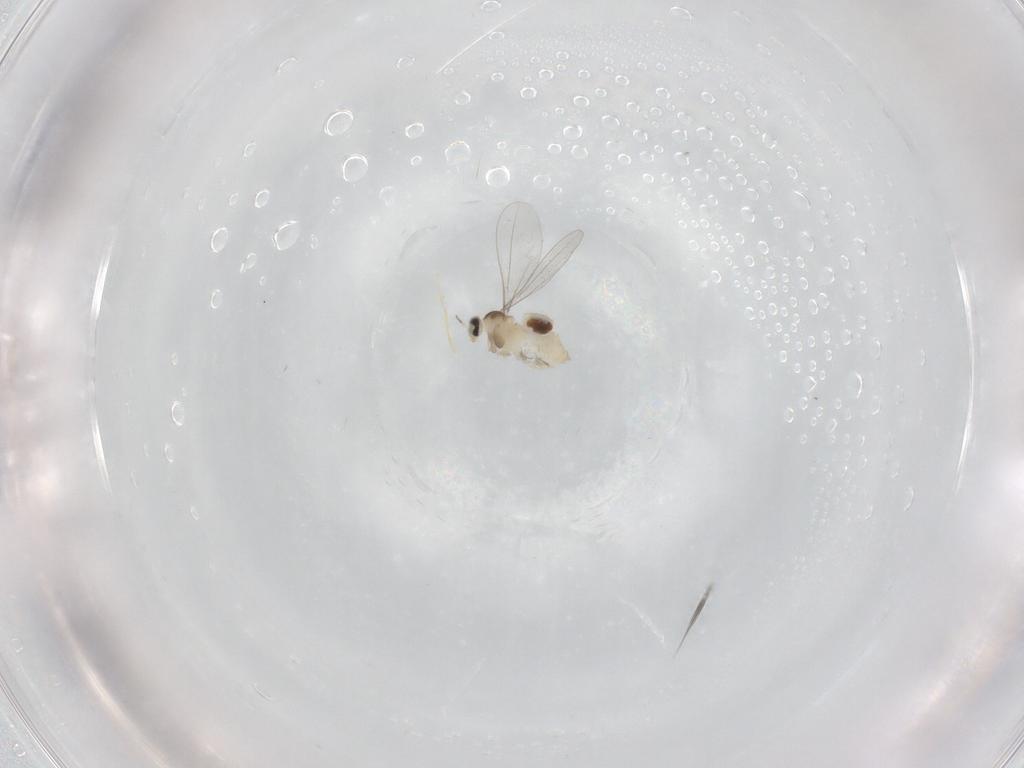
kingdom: Animalia
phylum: Arthropoda
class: Insecta
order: Diptera
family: Cecidomyiidae
